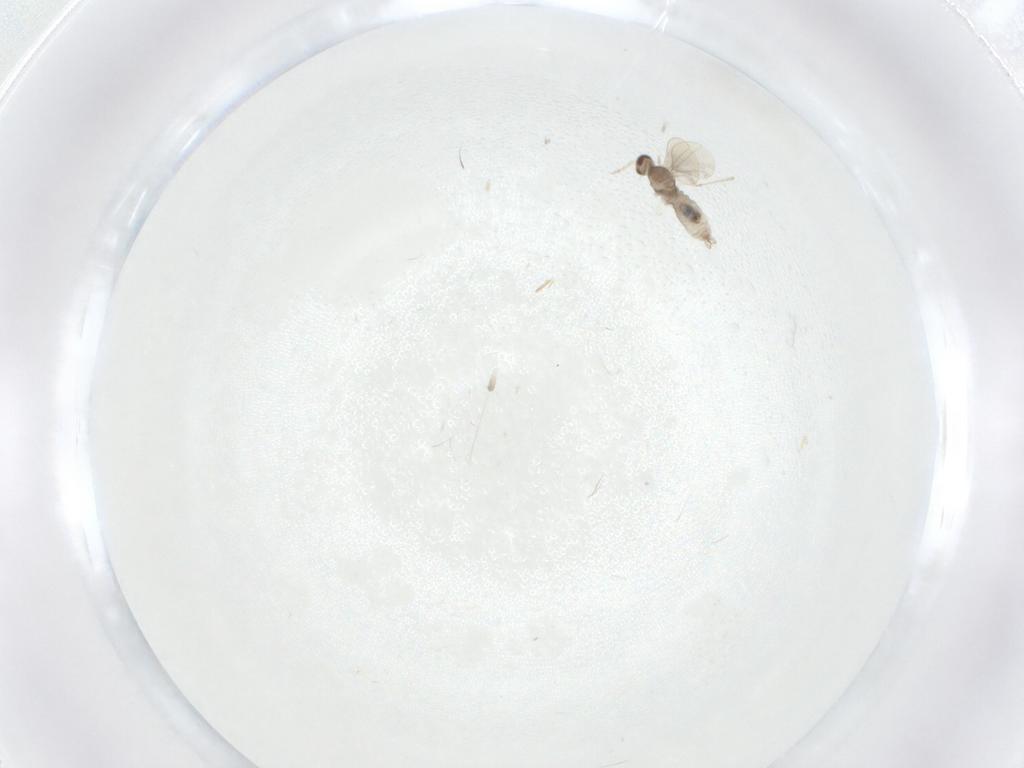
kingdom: Animalia
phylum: Arthropoda
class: Insecta
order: Diptera
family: Cecidomyiidae
